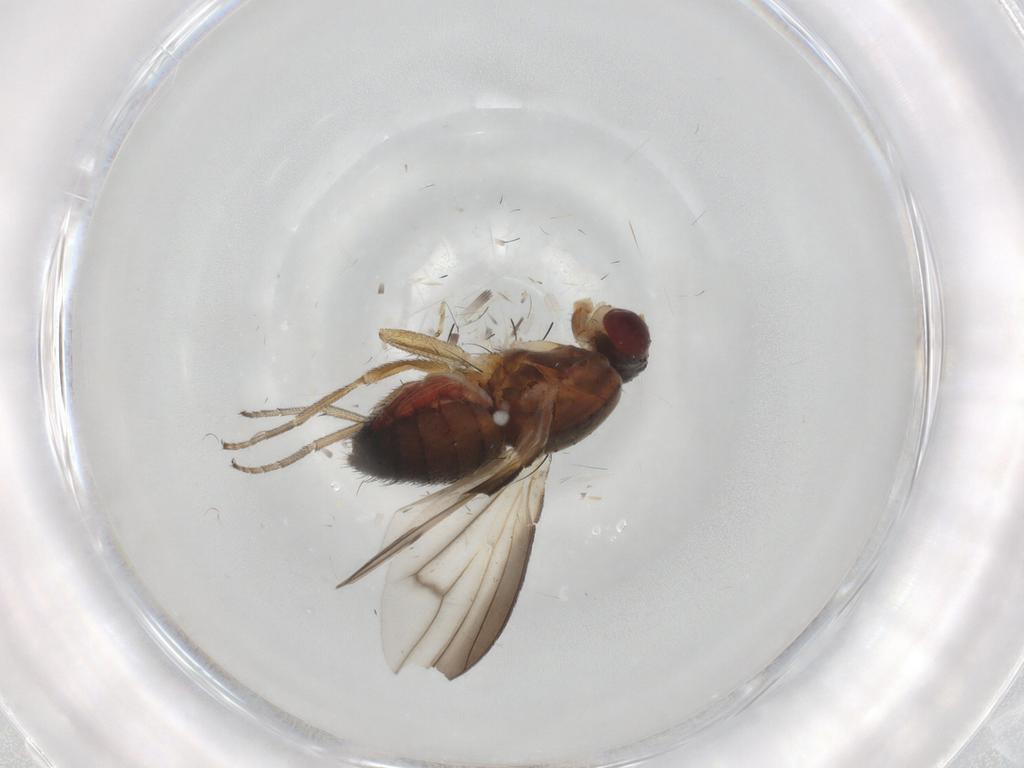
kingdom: Animalia
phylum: Arthropoda
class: Insecta
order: Diptera
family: Heleomyzidae
